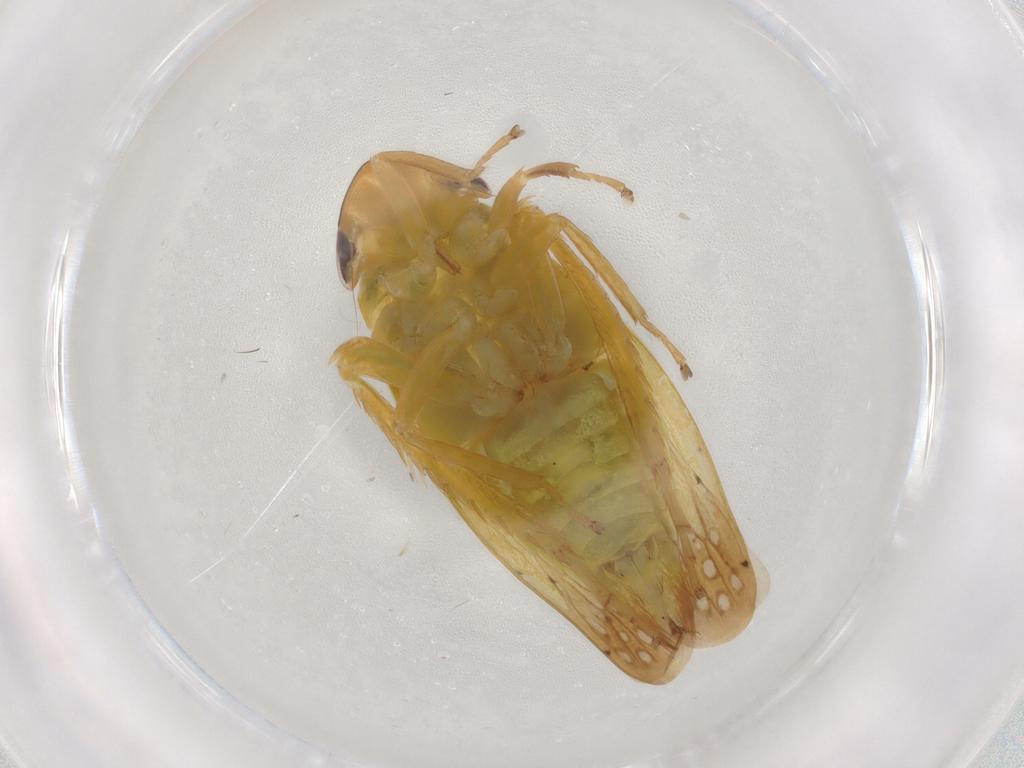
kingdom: Animalia
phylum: Arthropoda
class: Insecta
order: Hemiptera
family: Cicadellidae
